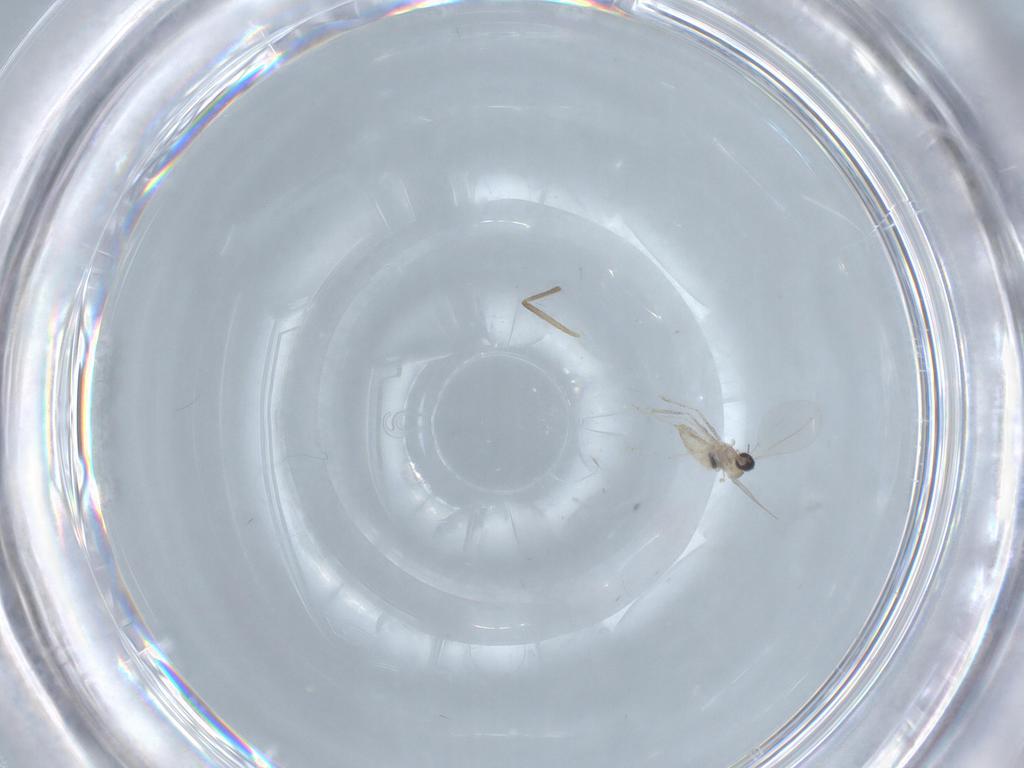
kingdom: Animalia
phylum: Arthropoda
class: Insecta
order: Diptera
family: Cecidomyiidae
